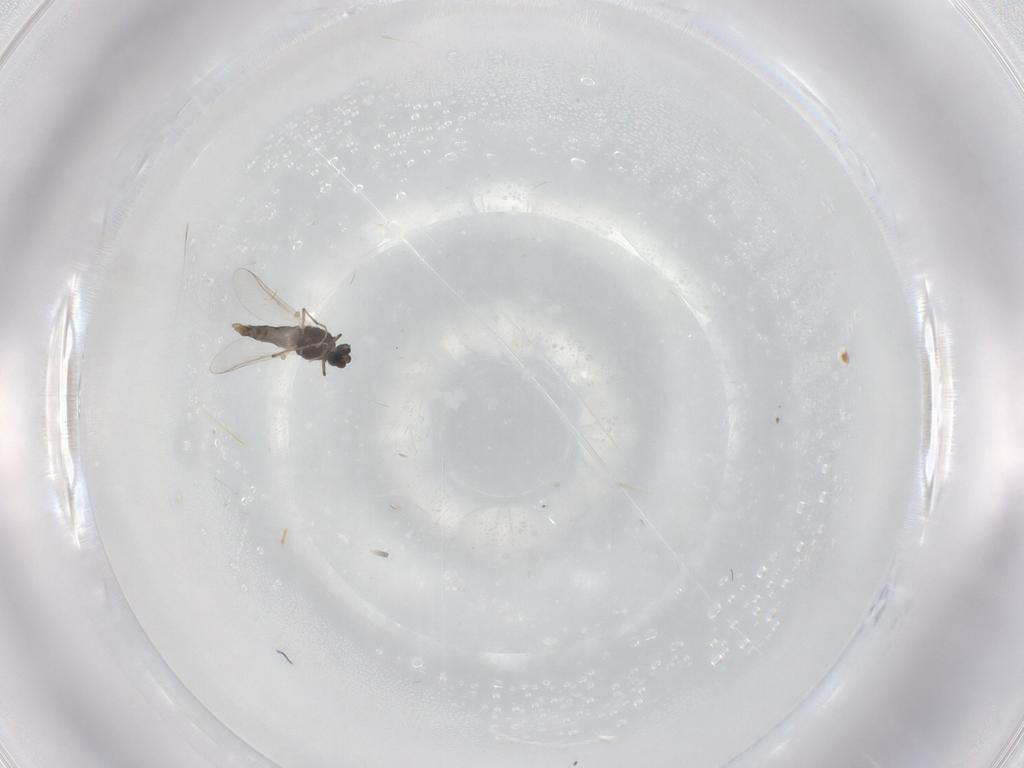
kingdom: Animalia
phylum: Arthropoda
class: Insecta
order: Diptera
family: Chironomidae
